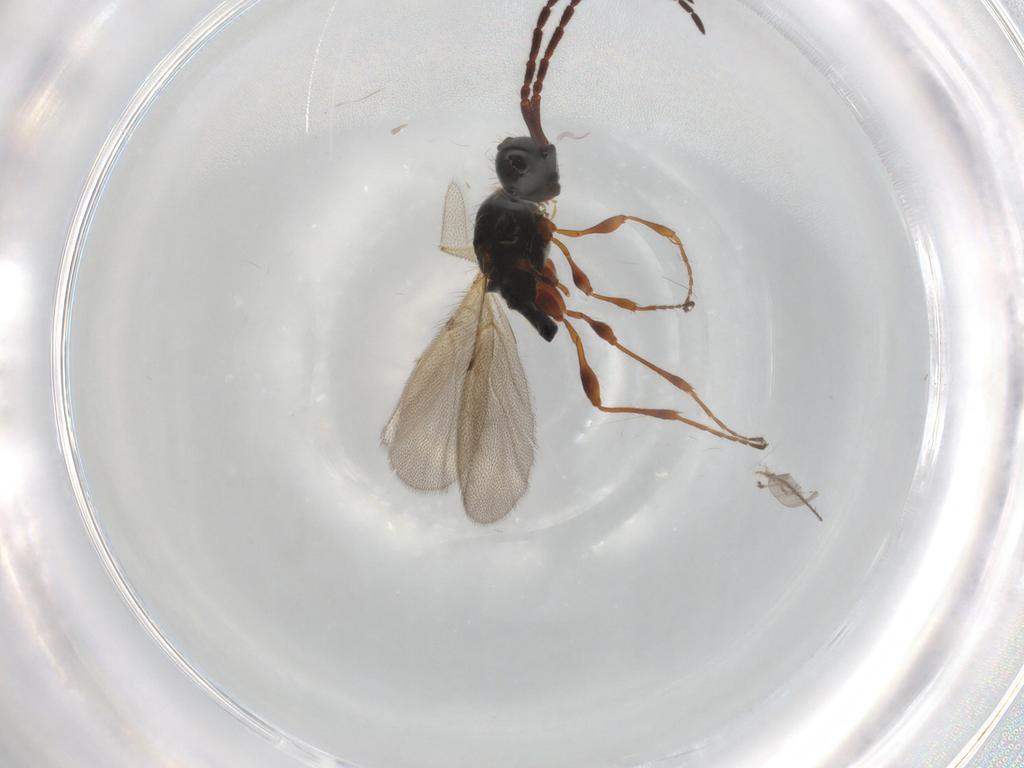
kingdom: Animalia
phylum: Arthropoda
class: Insecta
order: Hymenoptera
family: Diapriidae
